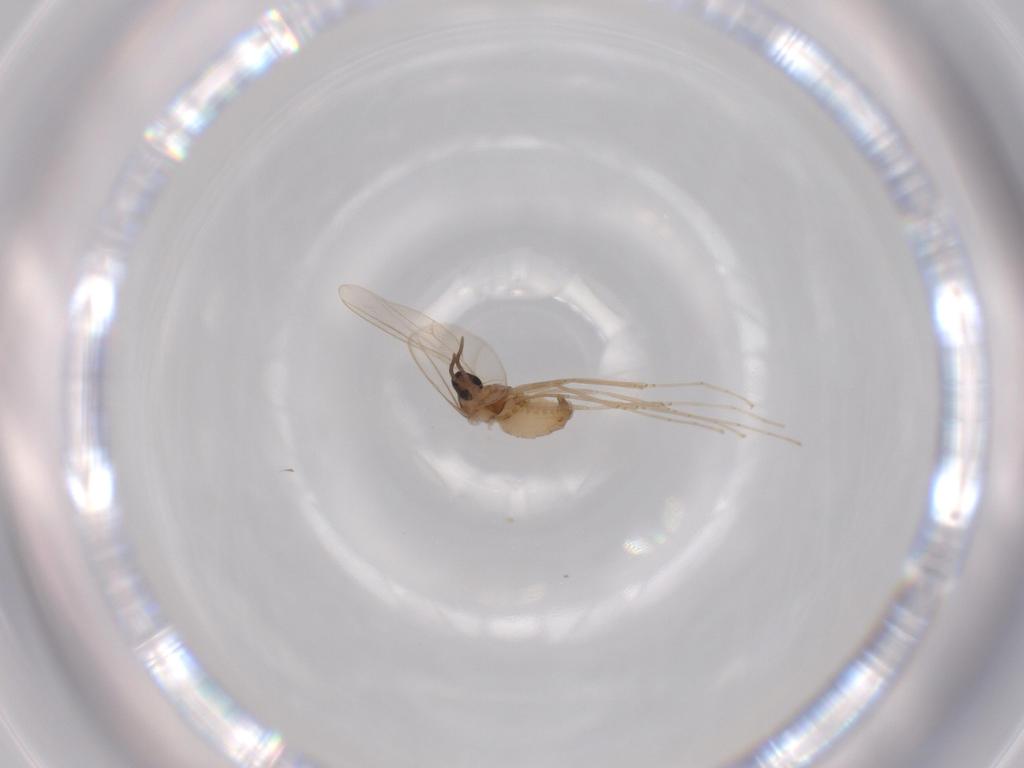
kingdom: Animalia
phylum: Arthropoda
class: Insecta
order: Diptera
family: Cecidomyiidae
